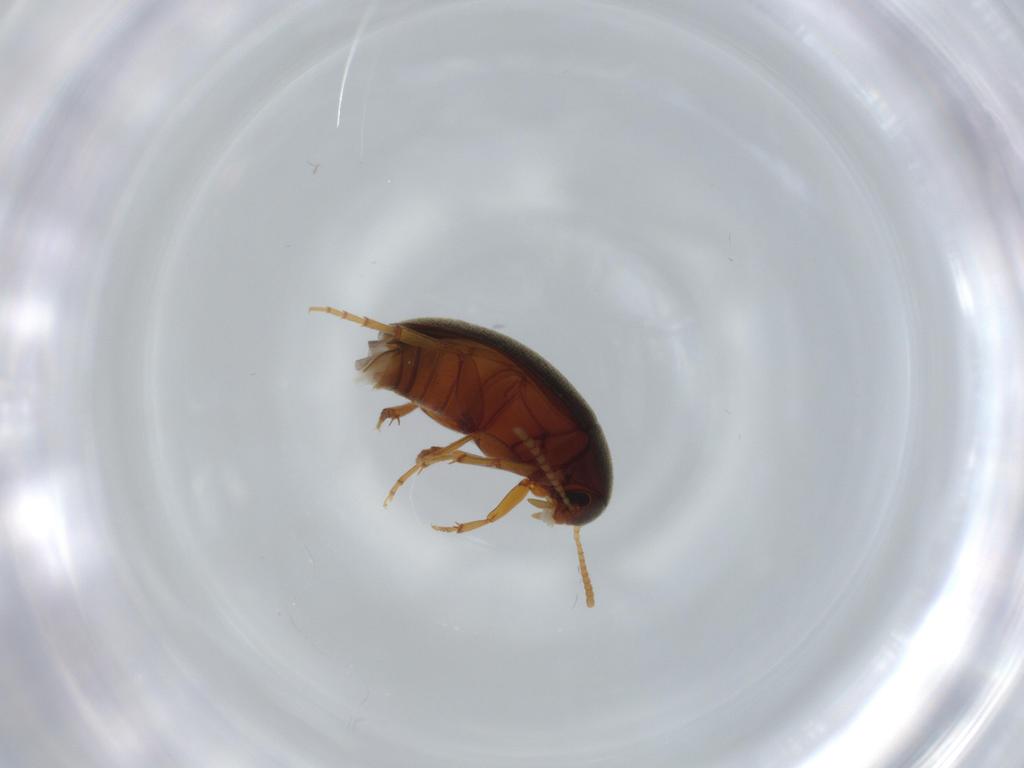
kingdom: Animalia
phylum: Arthropoda
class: Insecta
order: Coleoptera
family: Scraptiidae
